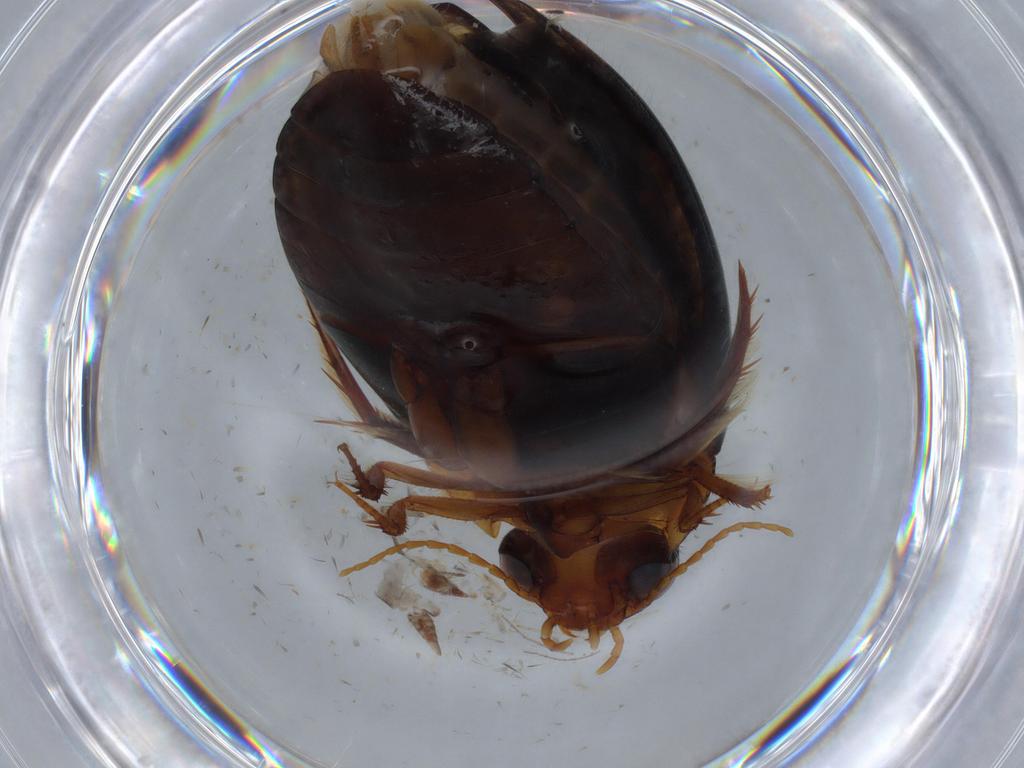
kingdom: Animalia
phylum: Arthropoda
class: Insecta
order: Coleoptera
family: Dytiscidae
